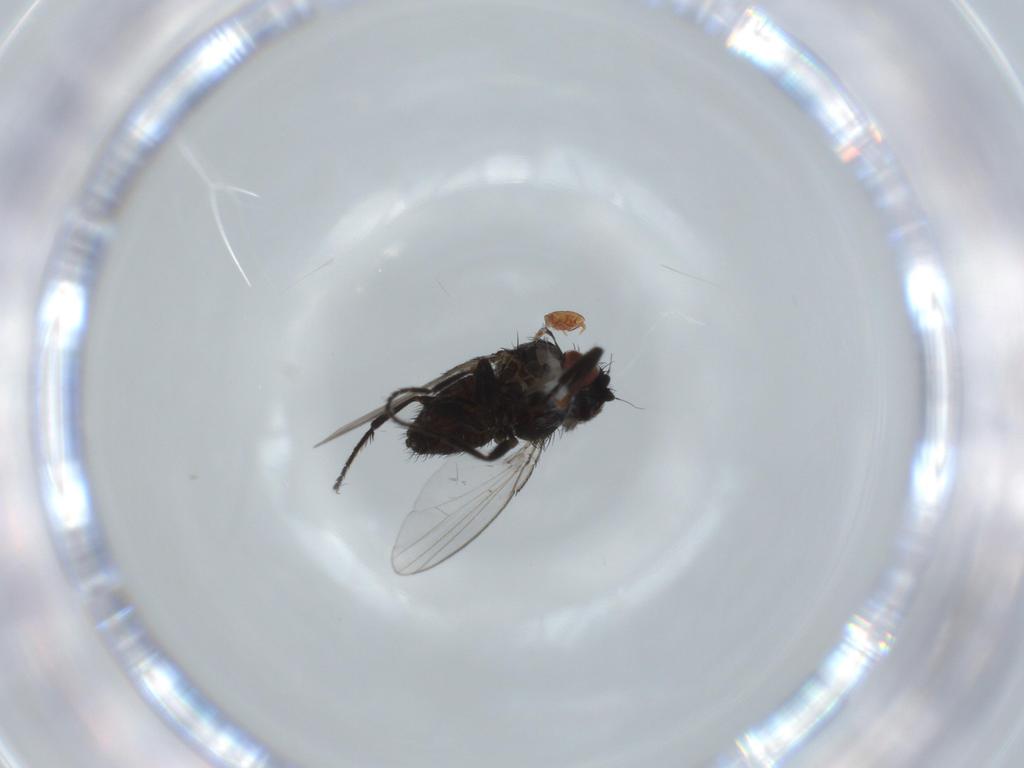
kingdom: Animalia
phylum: Arthropoda
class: Insecta
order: Diptera
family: Milichiidae
